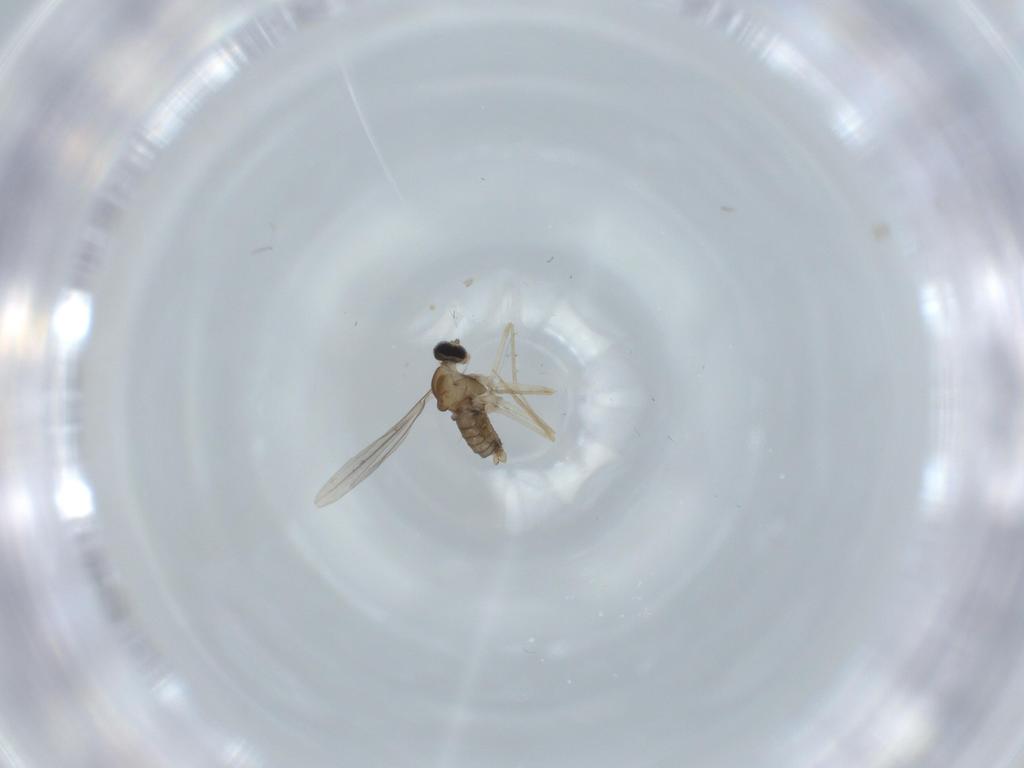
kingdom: Animalia
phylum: Arthropoda
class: Insecta
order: Diptera
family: Cecidomyiidae
